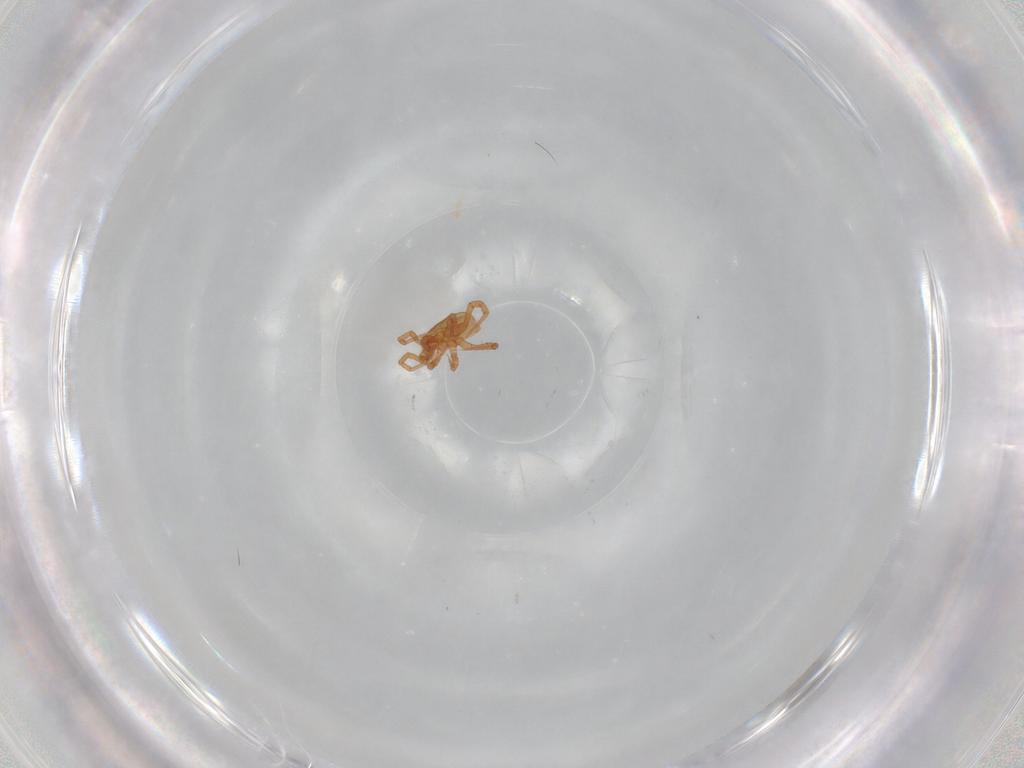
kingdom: Animalia
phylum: Arthropoda
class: Arachnida
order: Mesostigmata
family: Parasitidae
